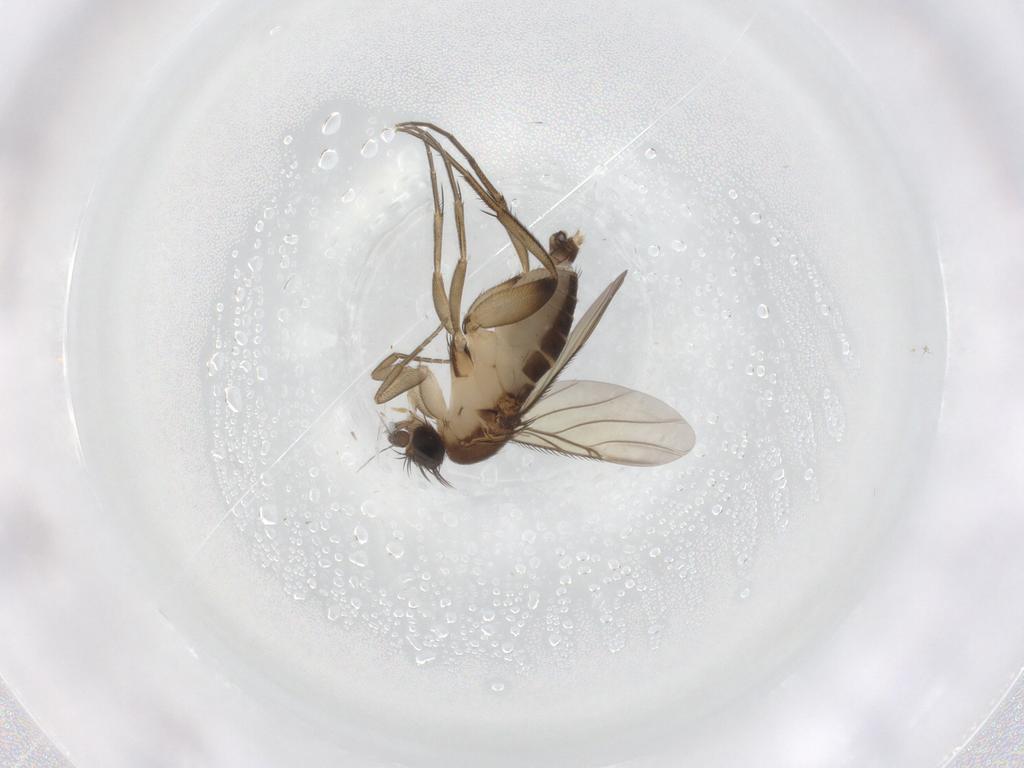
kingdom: Animalia
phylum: Arthropoda
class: Insecta
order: Diptera
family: Phoridae
